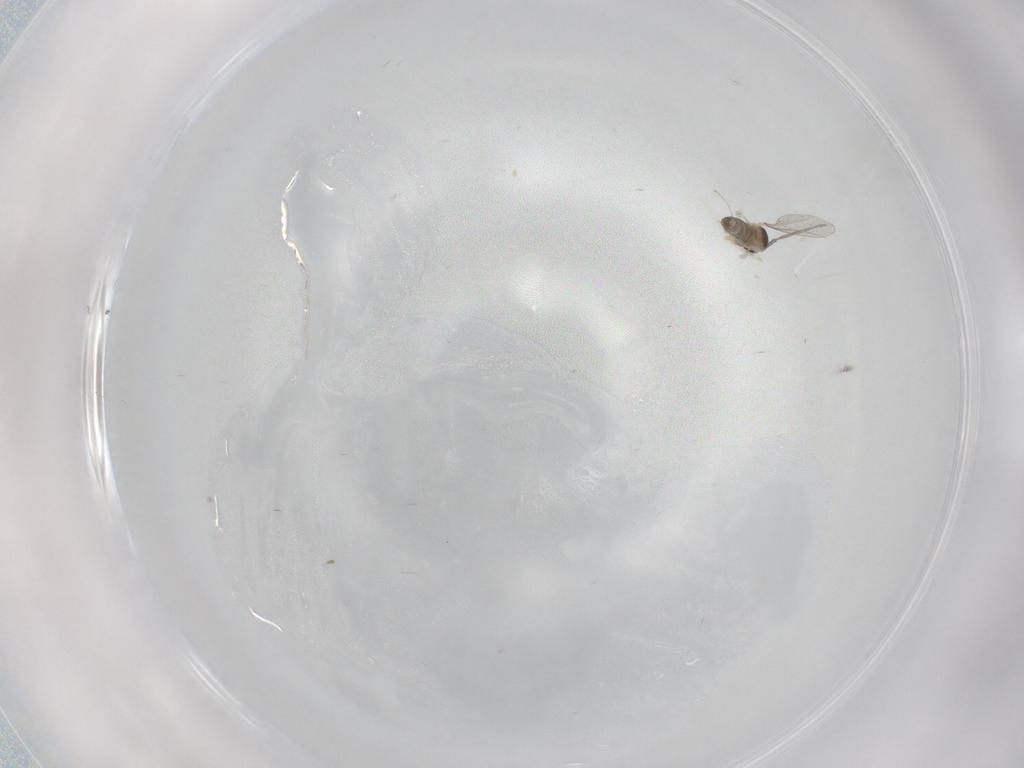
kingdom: Animalia
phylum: Arthropoda
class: Insecta
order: Diptera
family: Cecidomyiidae
